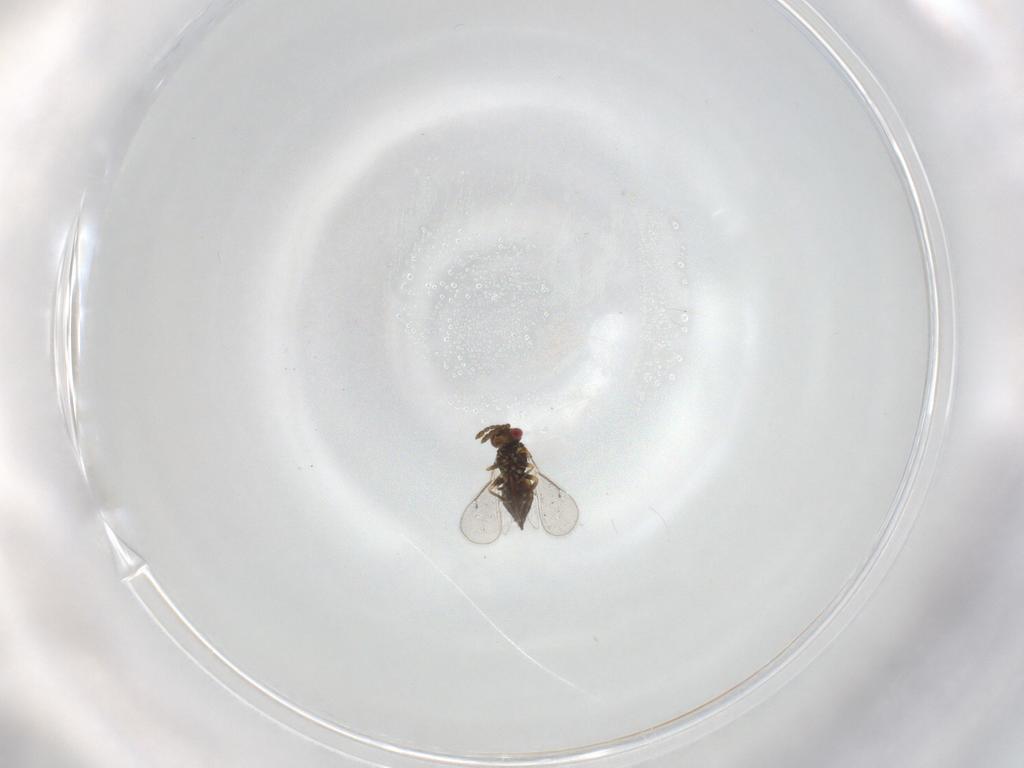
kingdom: Animalia
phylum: Arthropoda
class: Insecta
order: Hymenoptera
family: Eulophidae
